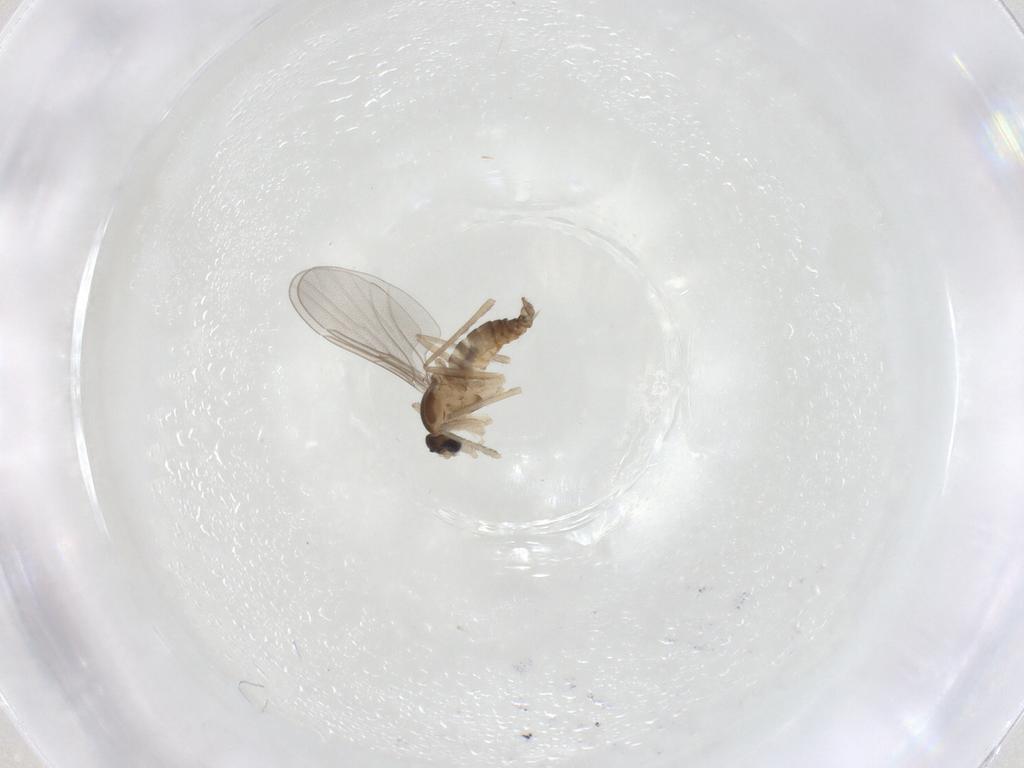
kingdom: Animalia
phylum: Arthropoda
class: Insecta
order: Diptera
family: Cecidomyiidae
